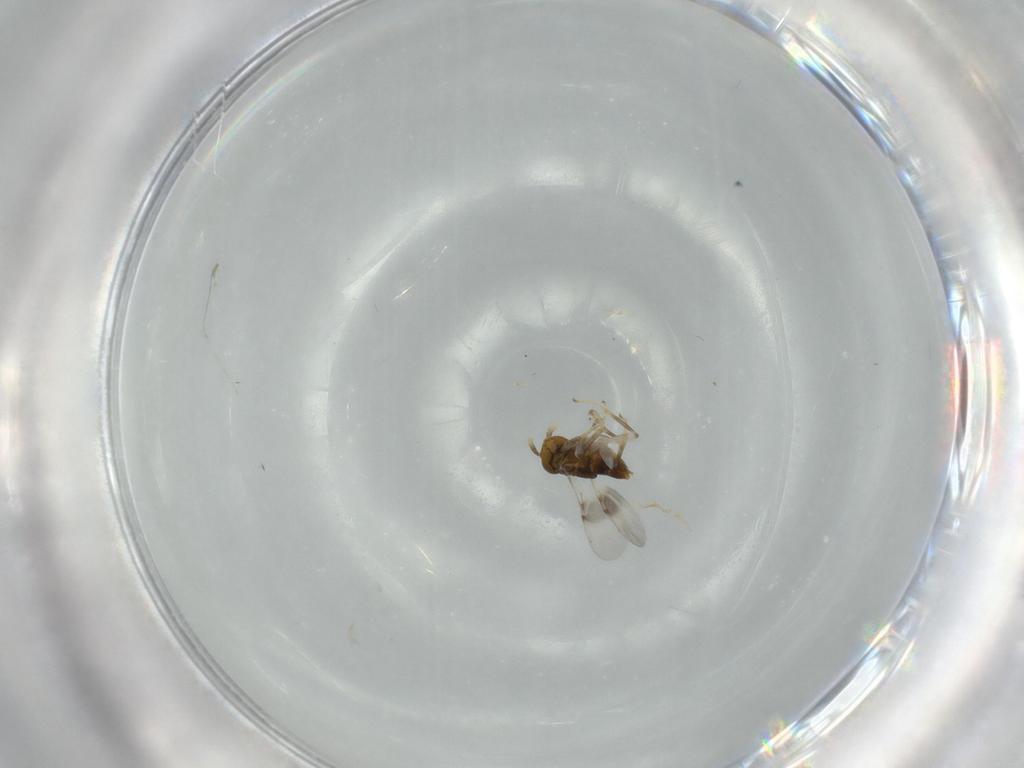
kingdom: Animalia
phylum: Arthropoda
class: Insecta
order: Hymenoptera
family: Encyrtidae
